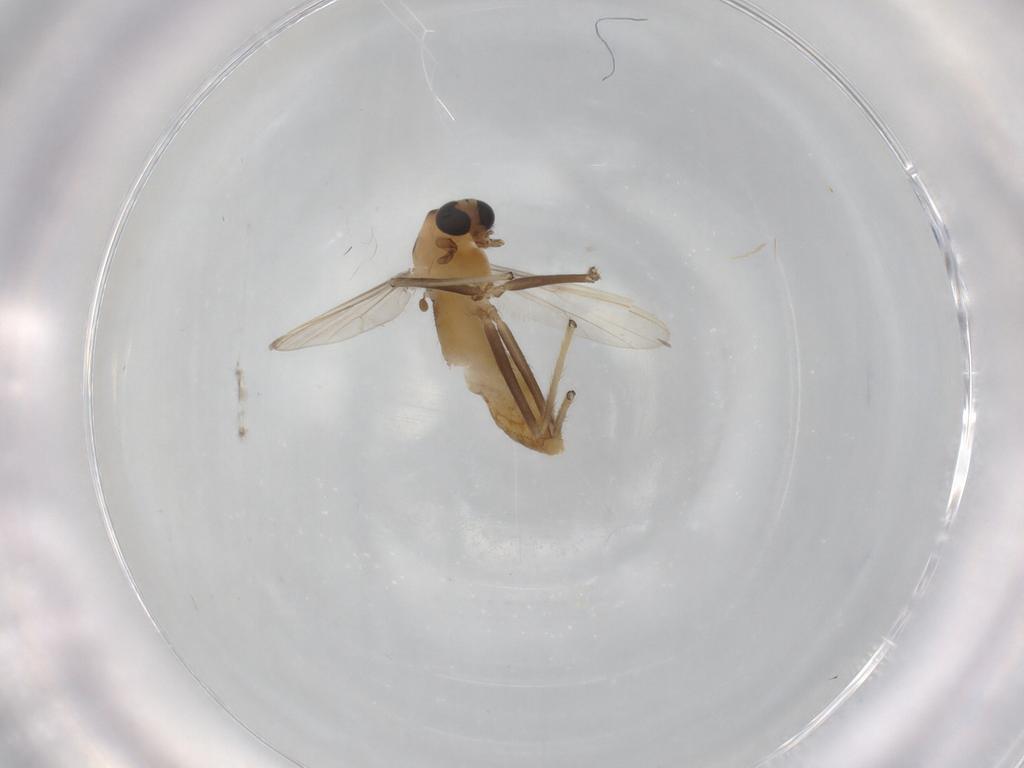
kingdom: Animalia
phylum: Arthropoda
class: Insecta
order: Diptera
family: Chironomidae
